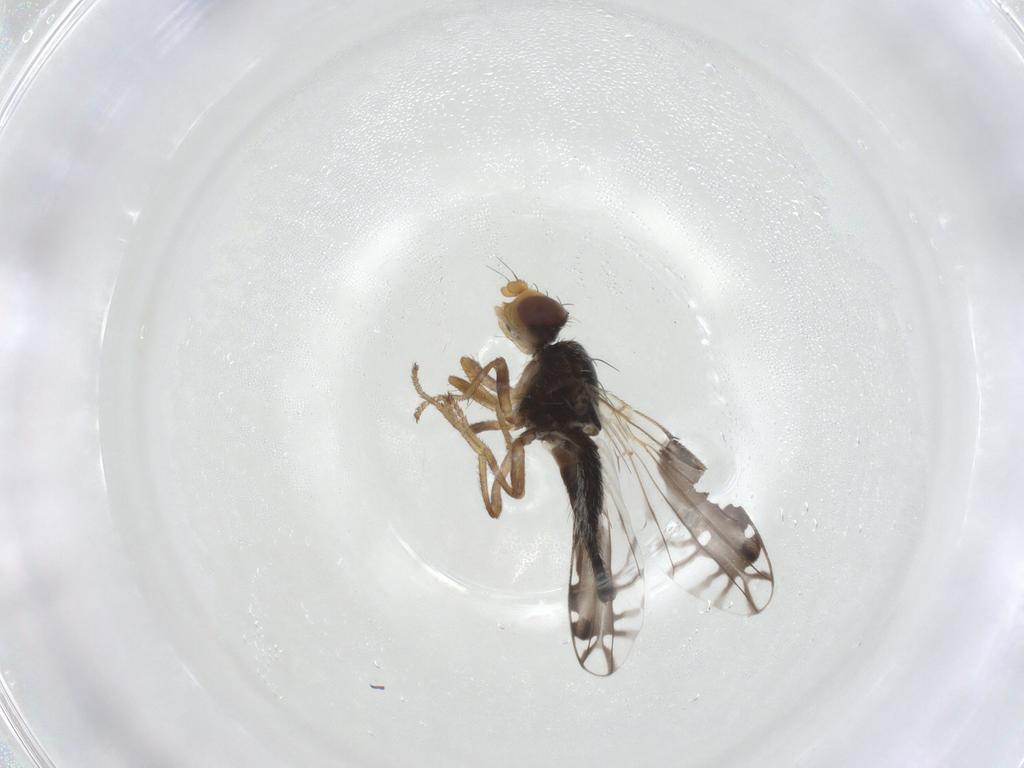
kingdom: Animalia
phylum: Arthropoda
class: Insecta
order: Diptera
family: Tephritidae
